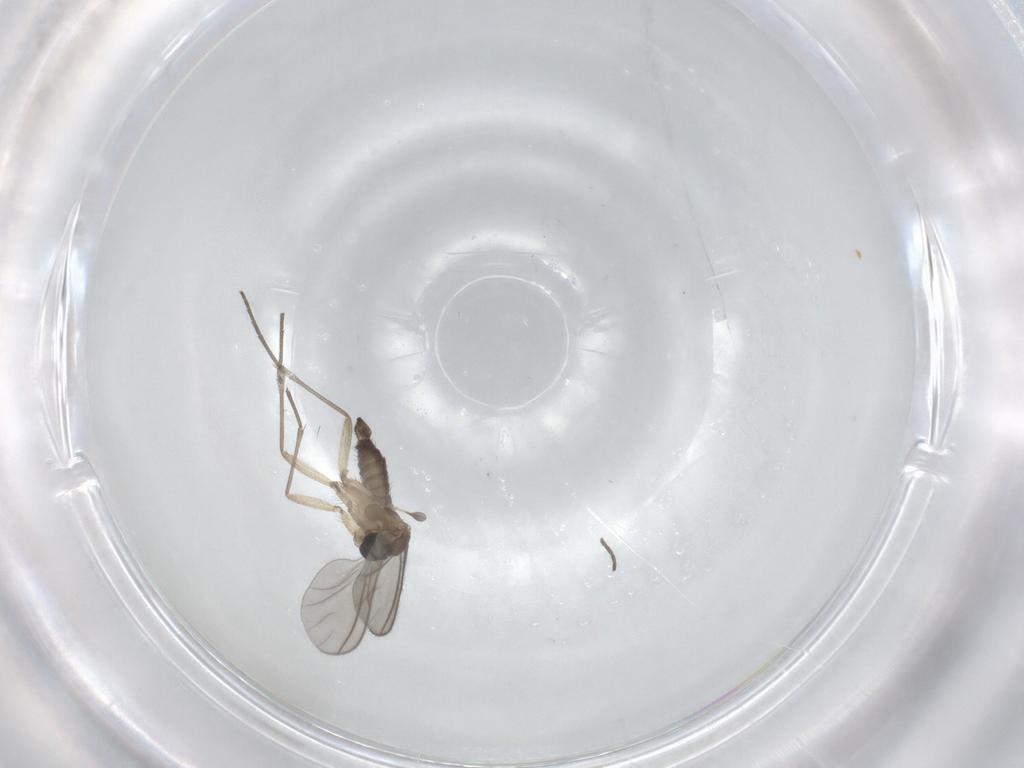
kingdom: Animalia
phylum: Arthropoda
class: Insecta
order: Diptera
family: Sciaridae
